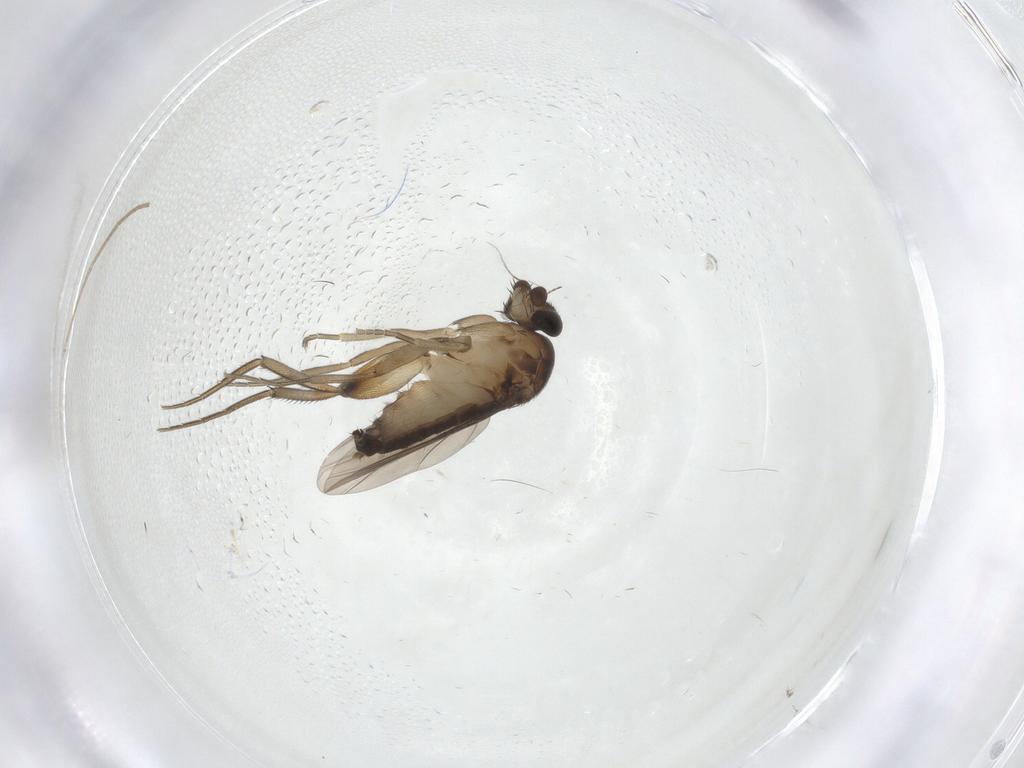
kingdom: Animalia
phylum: Arthropoda
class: Insecta
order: Diptera
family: Phoridae
